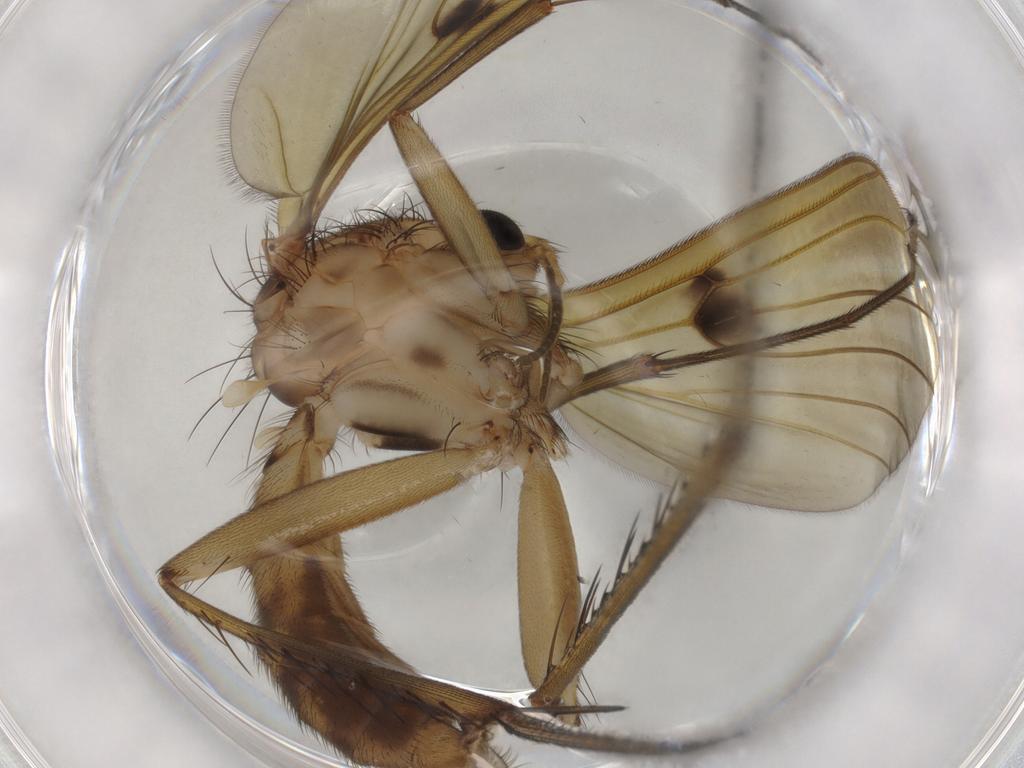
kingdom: Animalia
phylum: Arthropoda
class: Insecta
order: Diptera
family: Mycetophilidae
